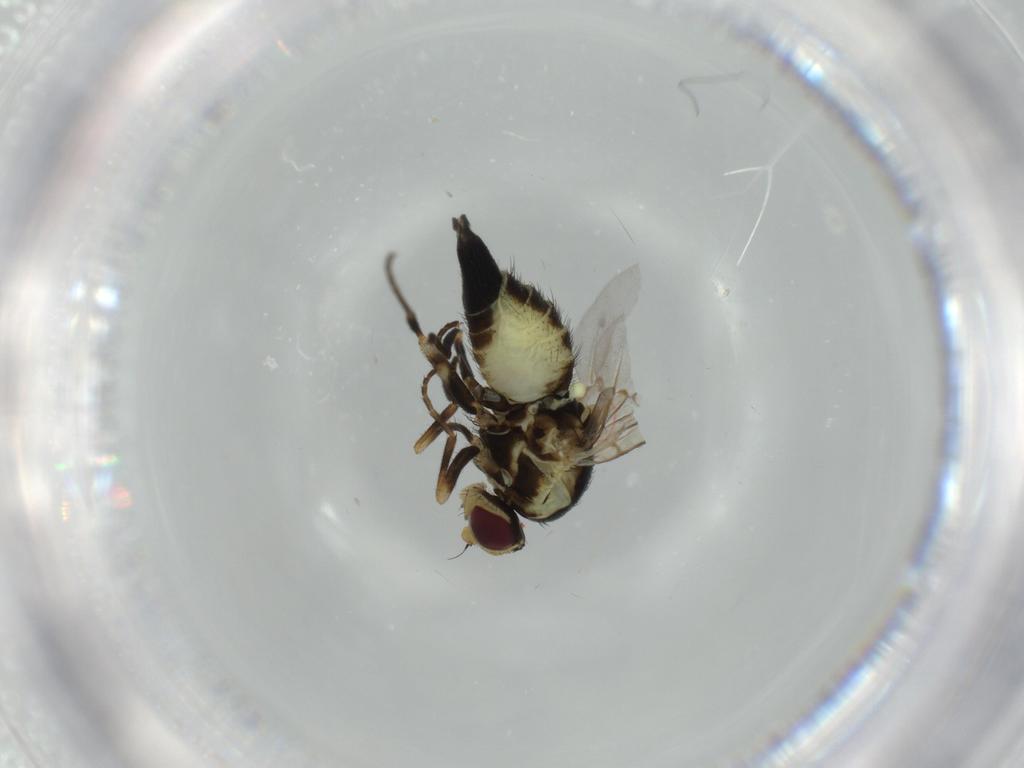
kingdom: Animalia
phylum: Arthropoda
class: Insecta
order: Diptera
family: Agromyzidae
